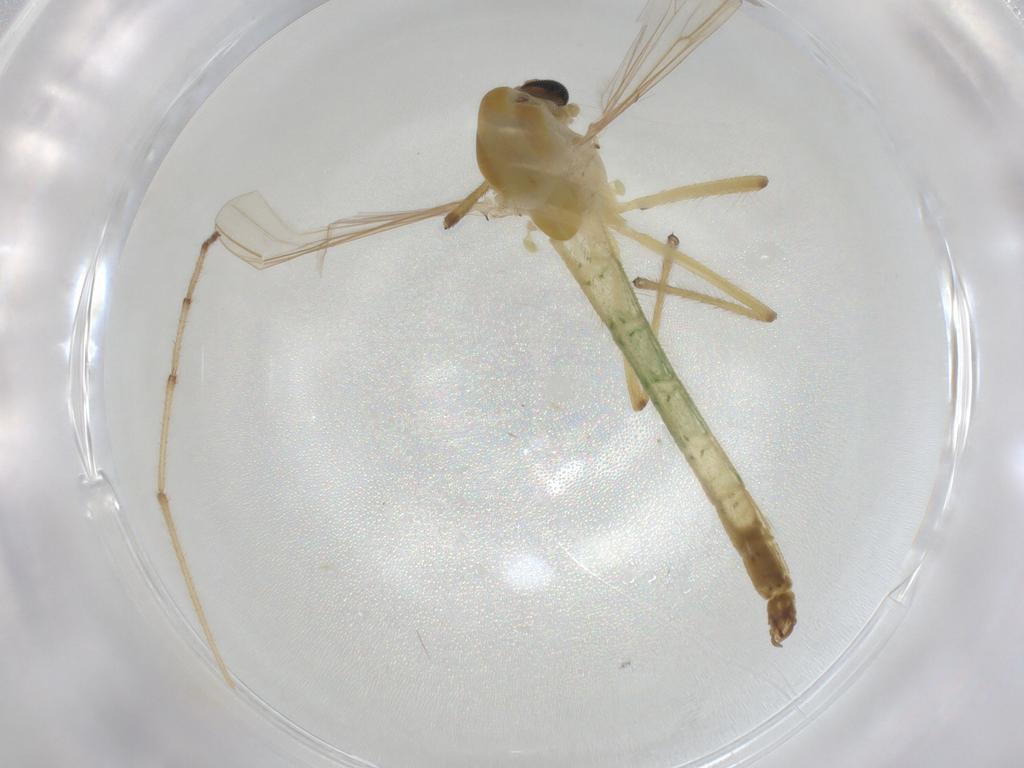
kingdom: Animalia
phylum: Arthropoda
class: Insecta
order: Diptera
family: Chironomidae
